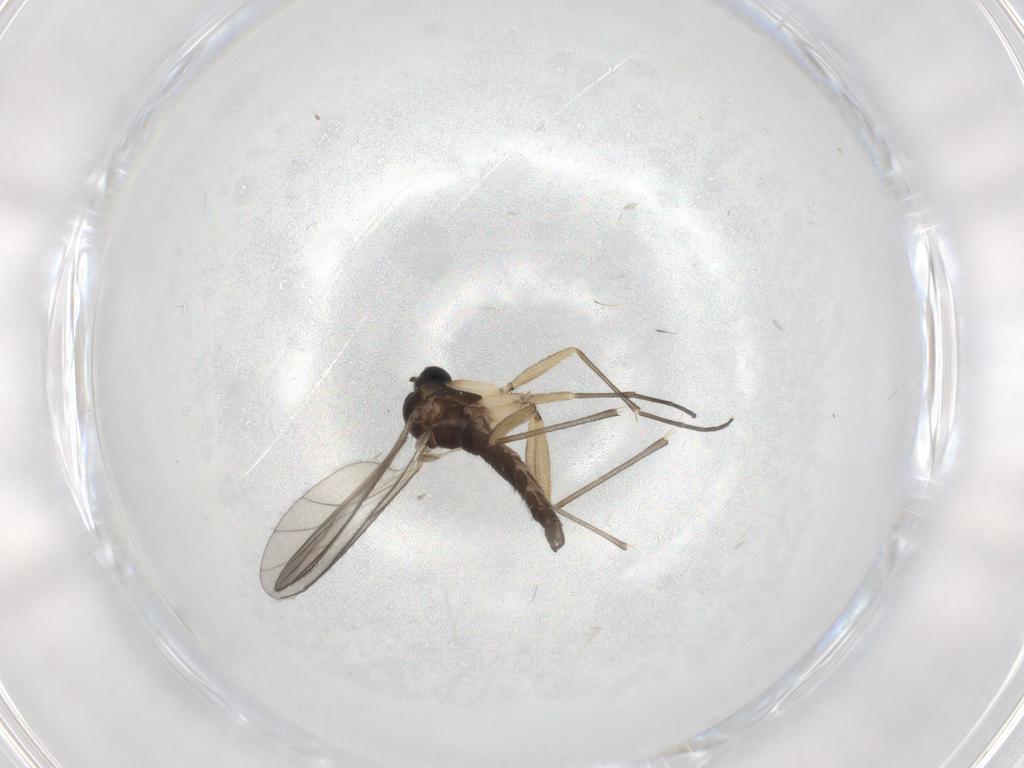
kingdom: Animalia
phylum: Arthropoda
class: Insecta
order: Diptera
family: Sciaridae
